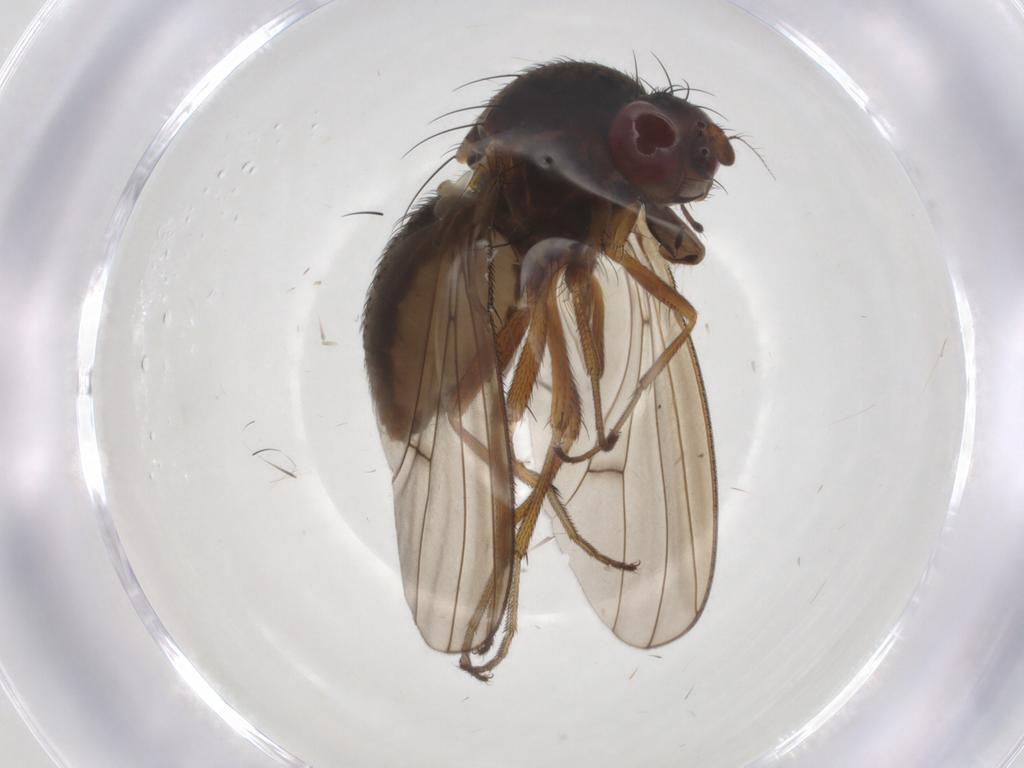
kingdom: Animalia
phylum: Arthropoda
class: Insecta
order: Diptera
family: Curtonotidae
